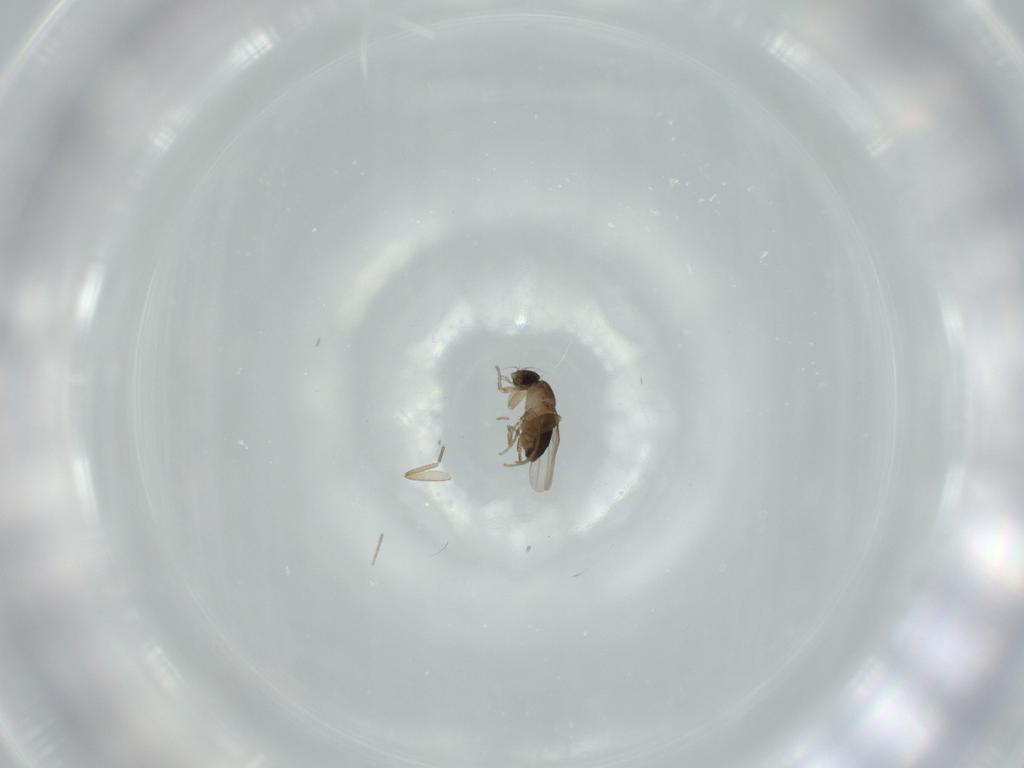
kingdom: Animalia
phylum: Arthropoda
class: Insecta
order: Diptera
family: Phoridae
